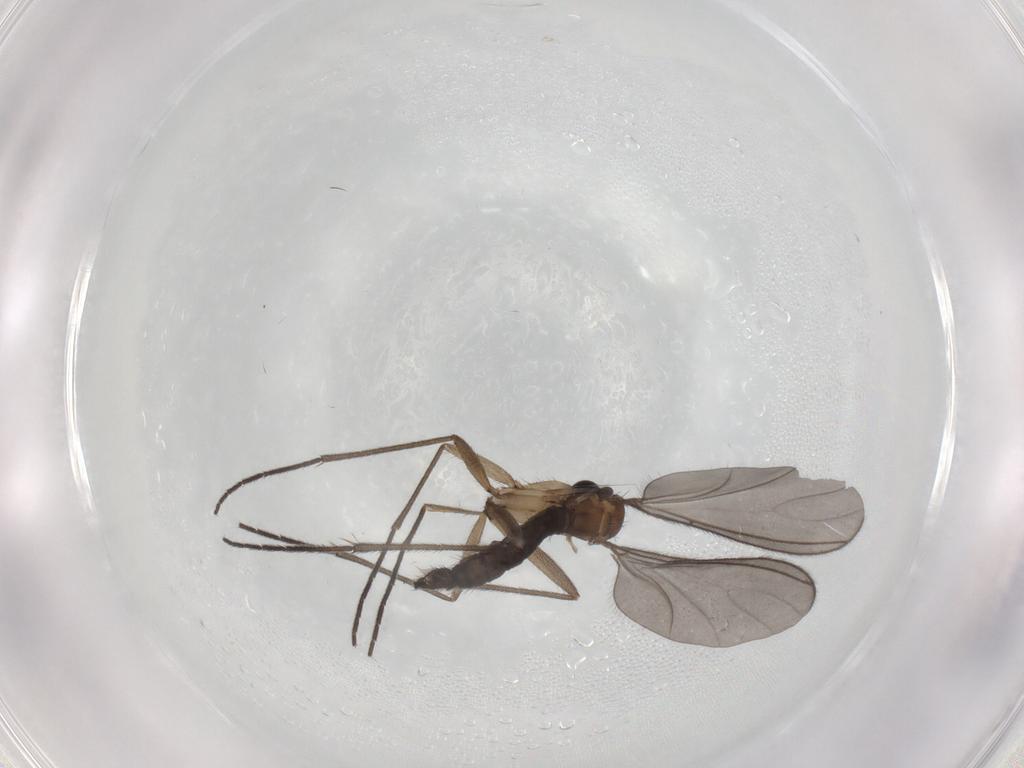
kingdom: Animalia
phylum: Arthropoda
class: Insecta
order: Diptera
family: Sciaridae
